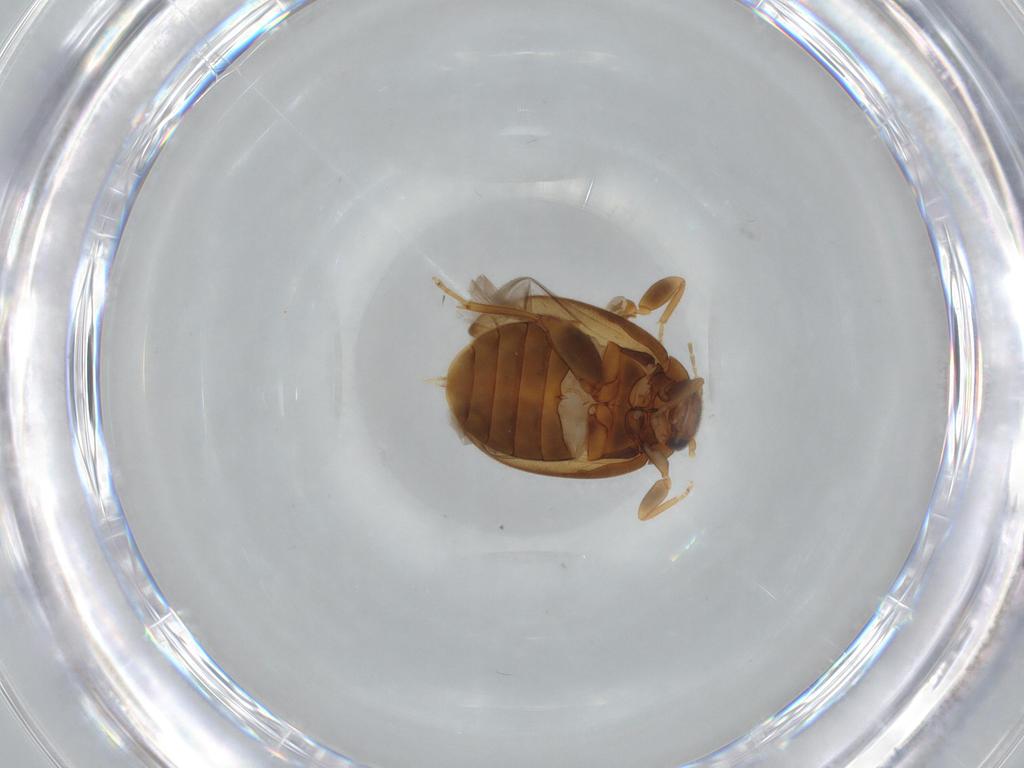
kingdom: Animalia
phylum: Arthropoda
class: Insecta
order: Coleoptera
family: Scirtidae
